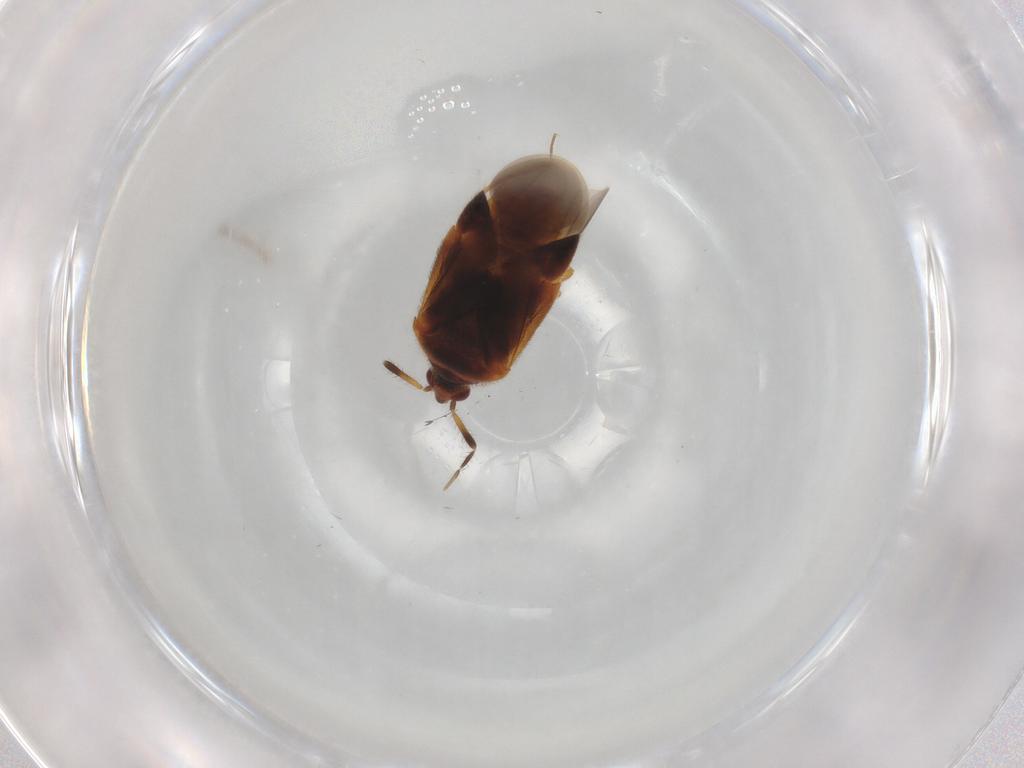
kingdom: Animalia
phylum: Arthropoda
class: Insecta
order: Hemiptera
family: Anthocoridae
